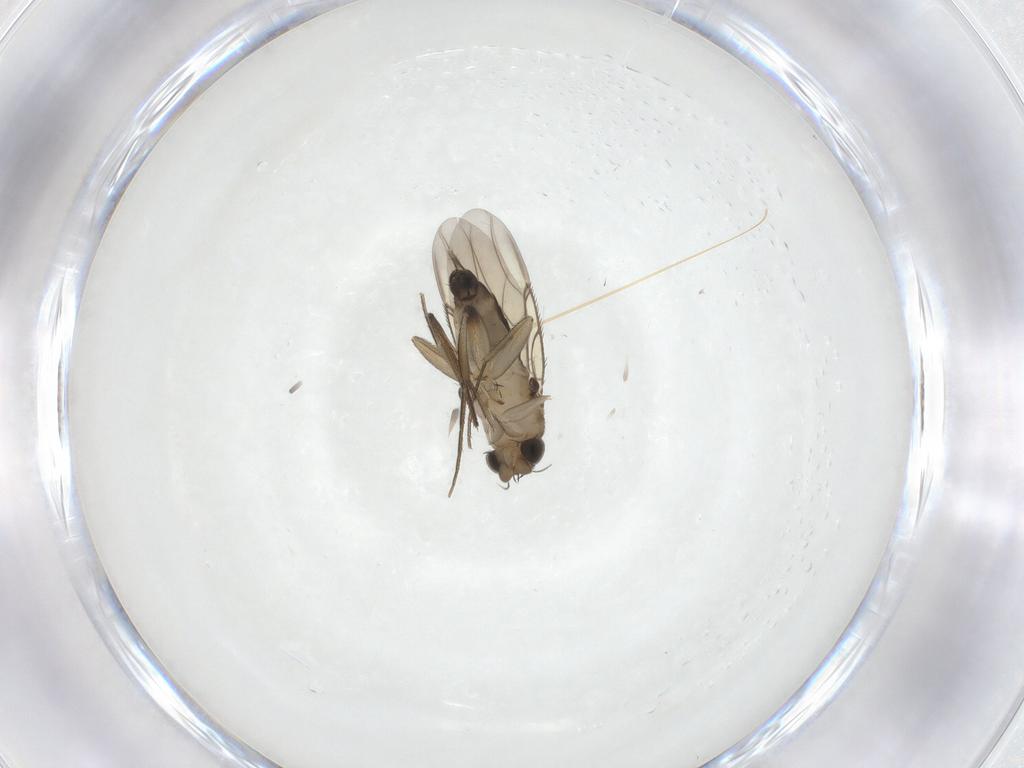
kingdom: Animalia
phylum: Arthropoda
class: Insecta
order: Diptera
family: Phoridae
